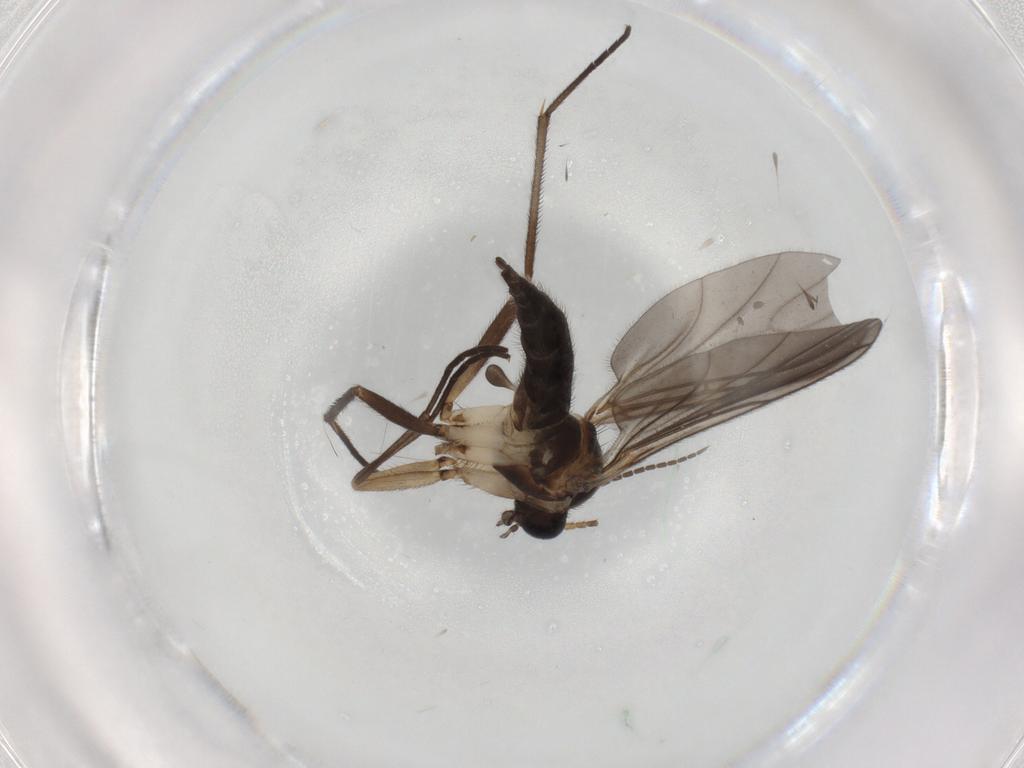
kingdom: Animalia
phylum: Arthropoda
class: Insecta
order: Diptera
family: Sciaridae
